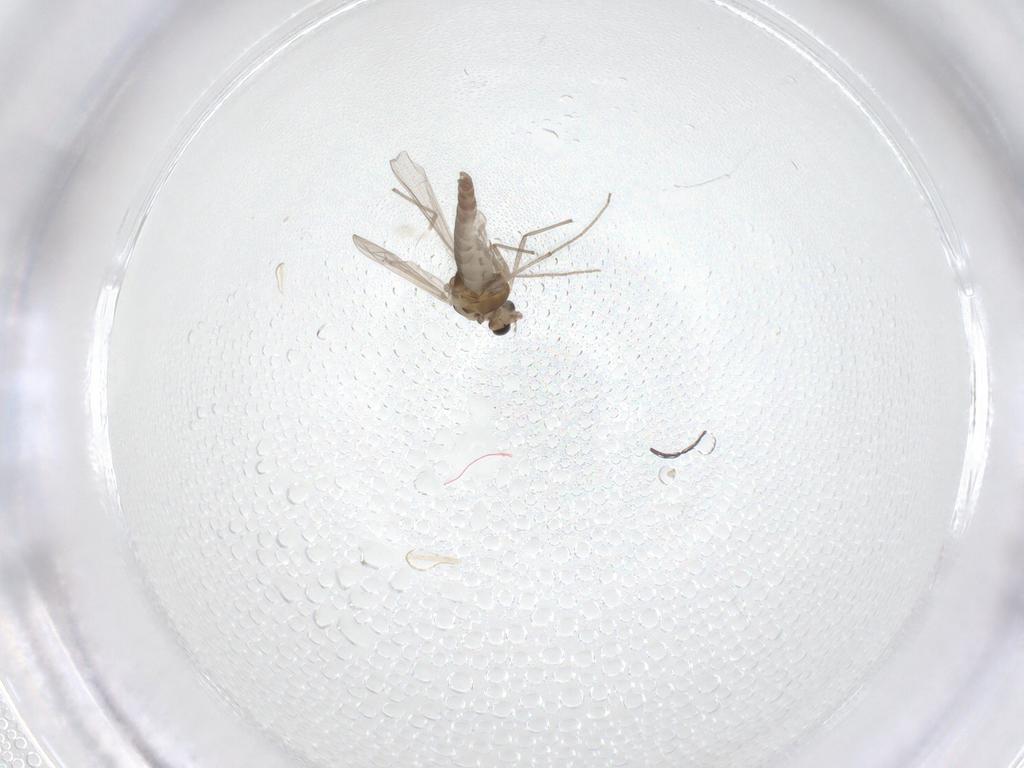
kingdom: Animalia
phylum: Arthropoda
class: Insecta
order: Diptera
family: Chironomidae
